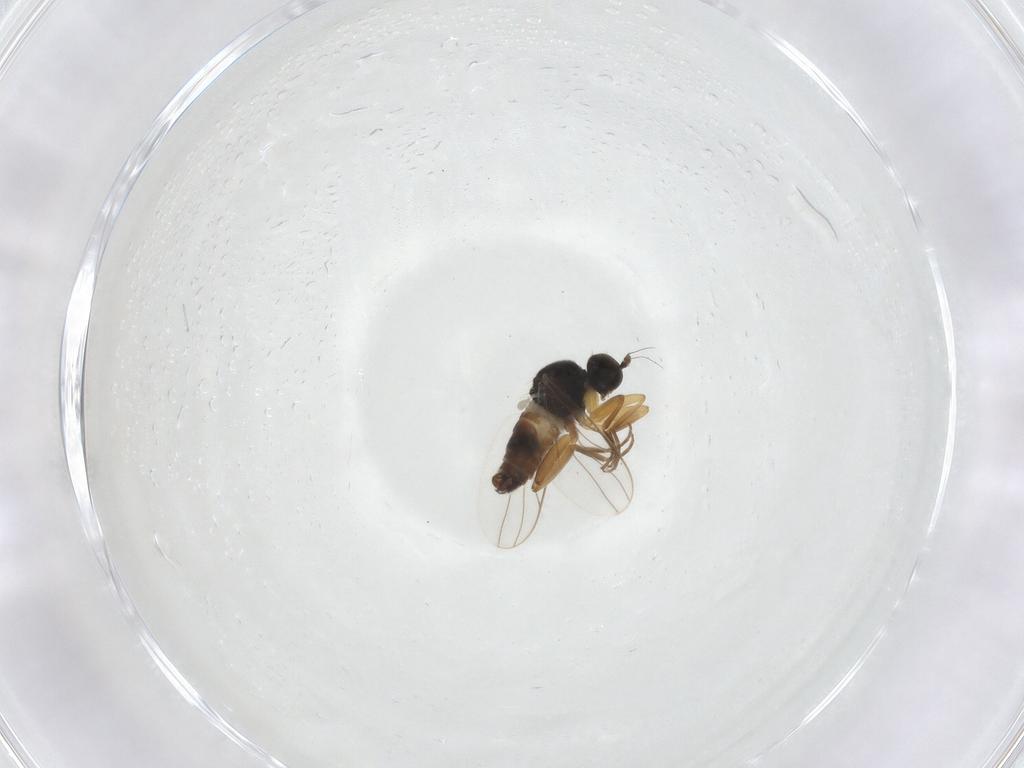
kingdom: Animalia
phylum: Arthropoda
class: Insecta
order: Diptera
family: Hybotidae
